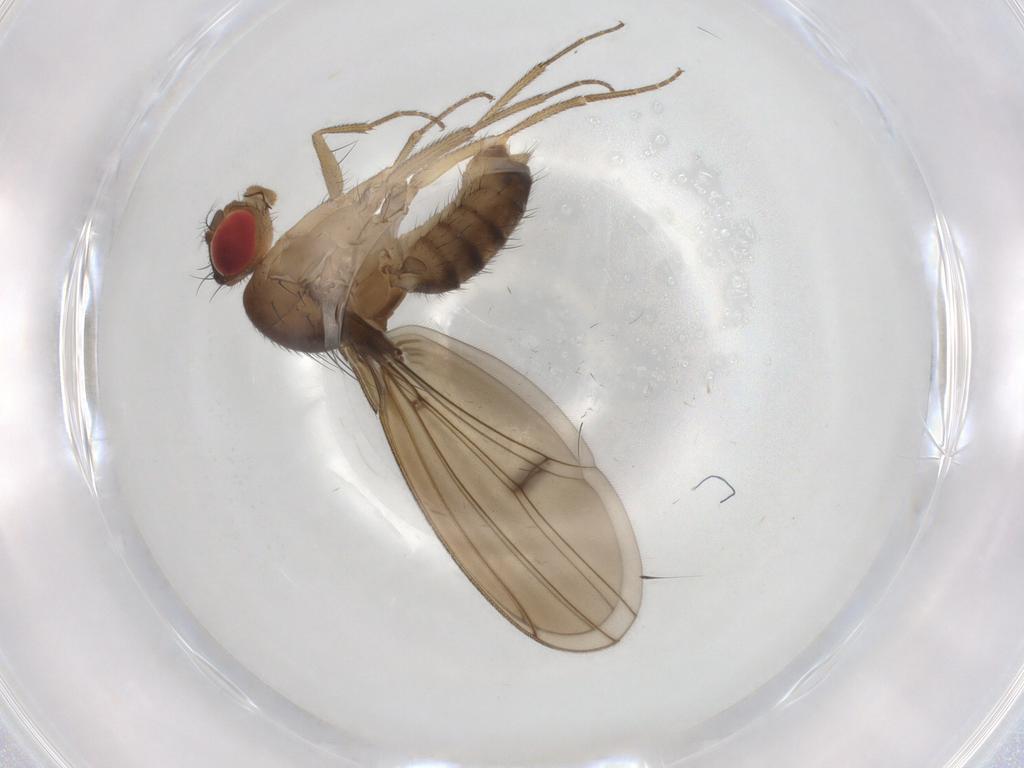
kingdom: Animalia
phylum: Arthropoda
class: Insecta
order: Diptera
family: Drosophilidae
